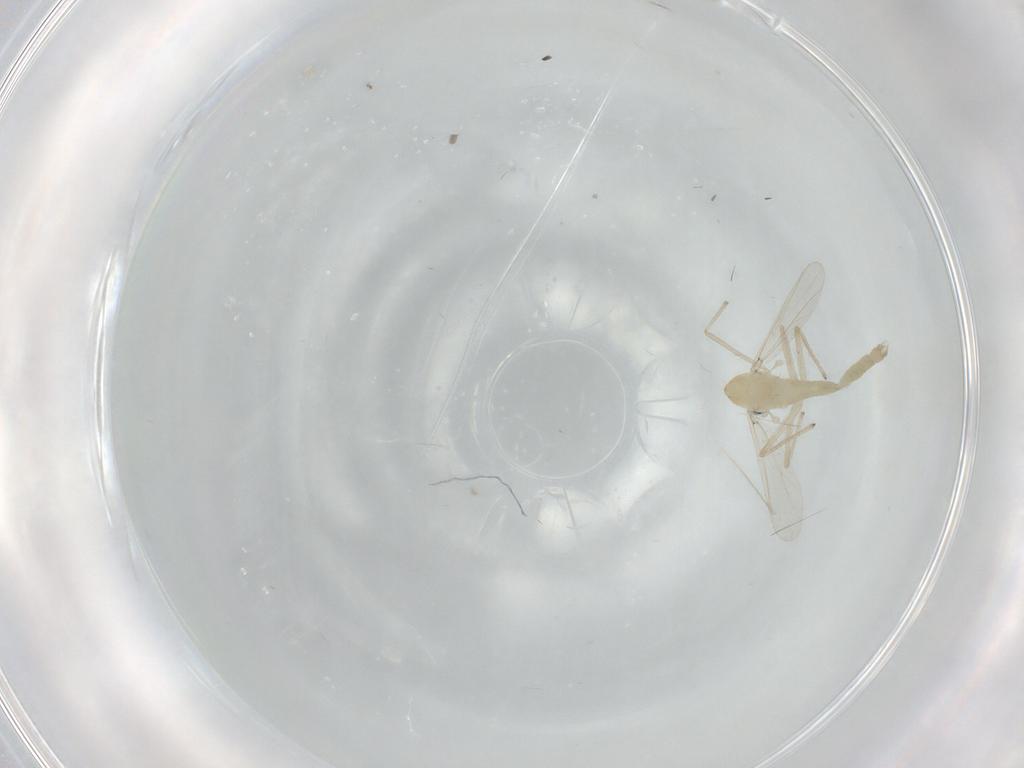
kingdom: Animalia
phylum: Arthropoda
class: Insecta
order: Diptera
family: Chironomidae
